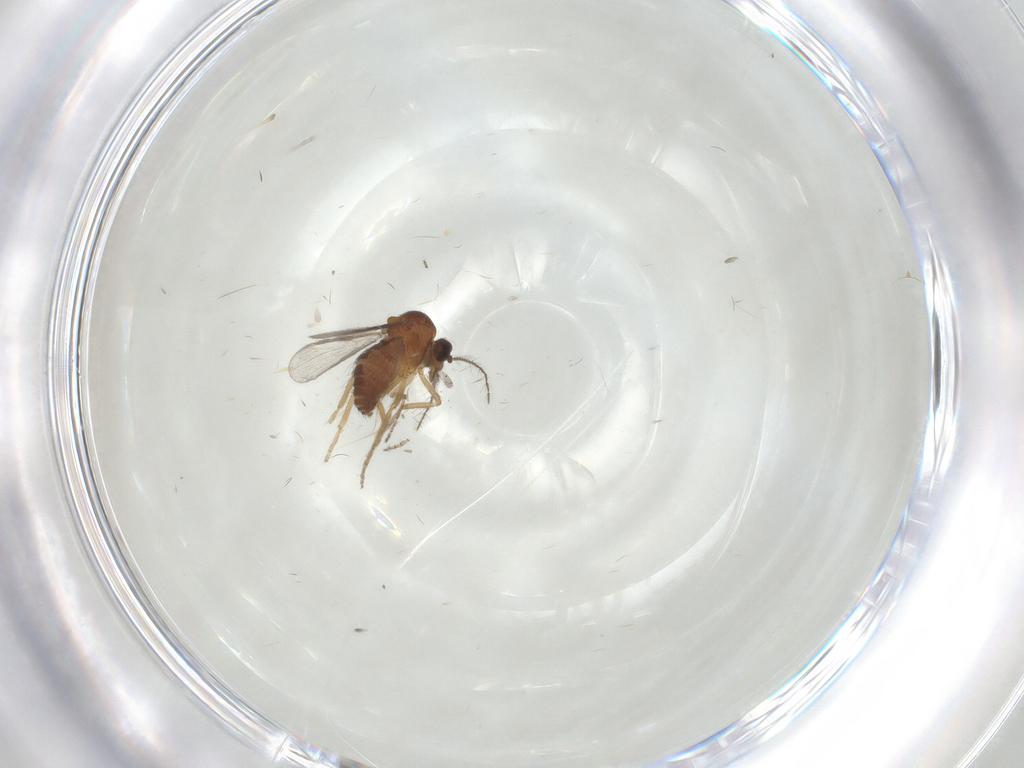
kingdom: Animalia
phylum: Arthropoda
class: Insecta
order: Diptera
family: Ceratopogonidae
